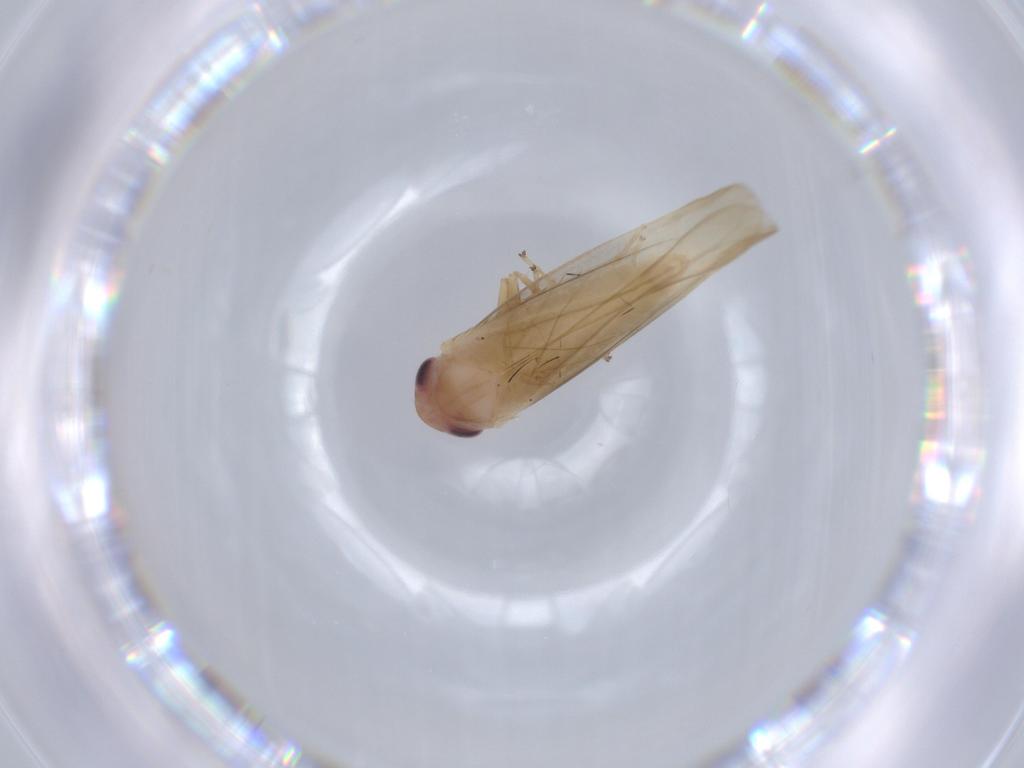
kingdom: Animalia
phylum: Arthropoda
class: Insecta
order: Hemiptera
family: Cicadellidae
